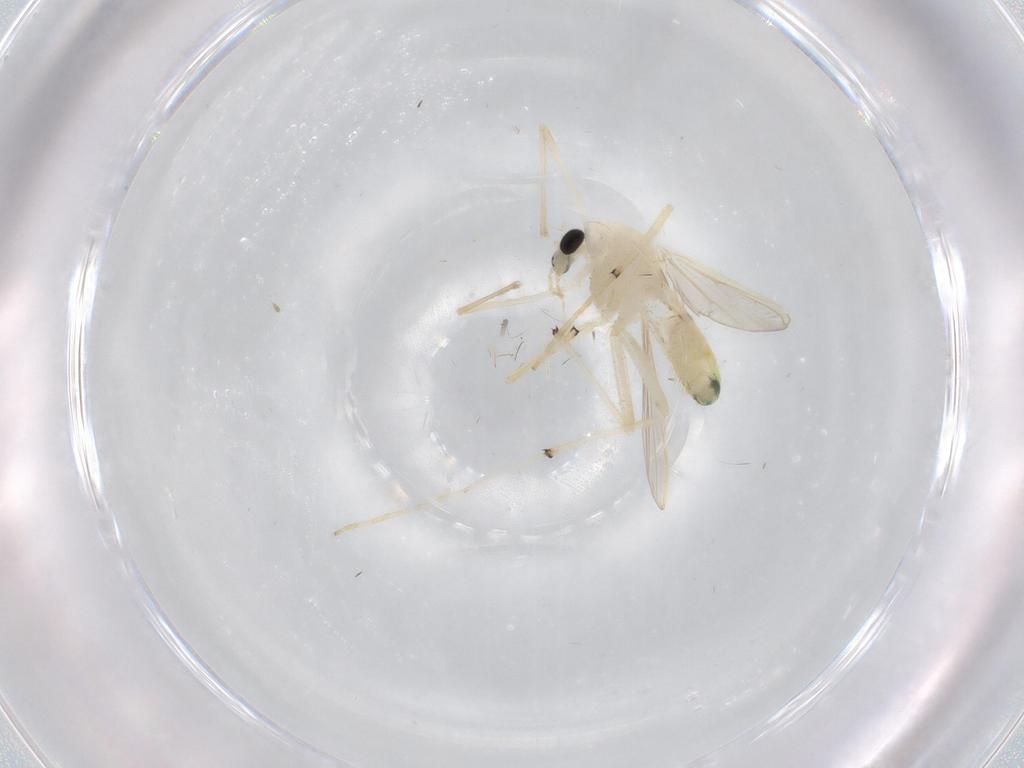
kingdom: Animalia
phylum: Arthropoda
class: Insecta
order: Diptera
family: Chironomidae
